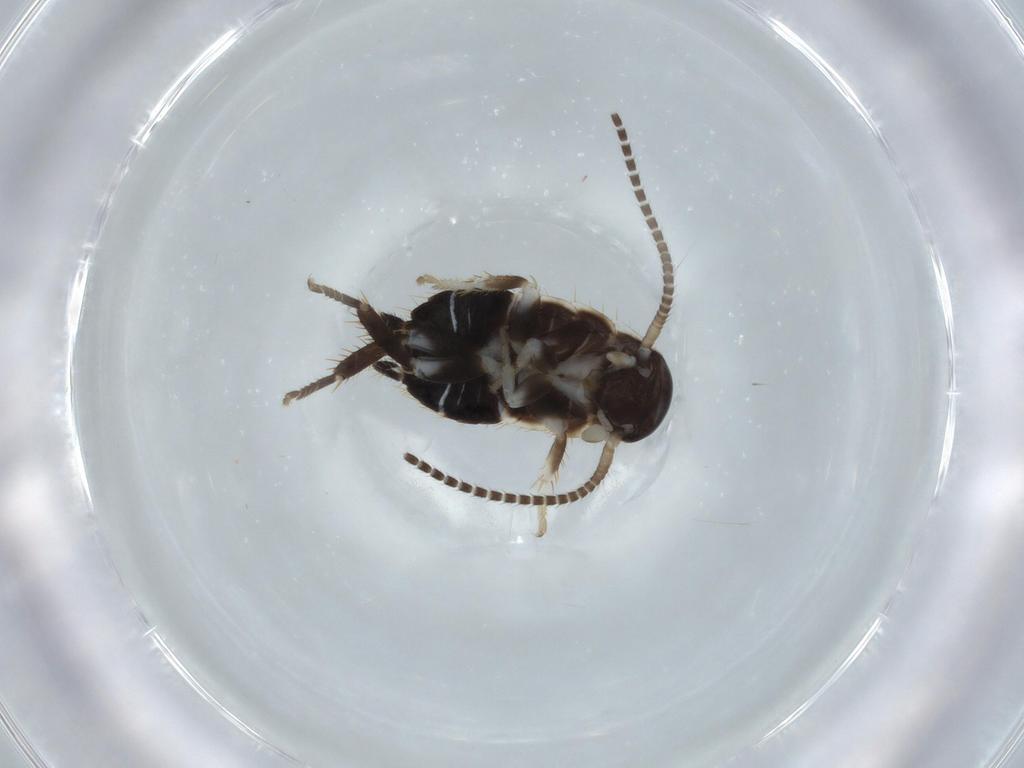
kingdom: Animalia
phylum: Arthropoda
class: Insecta
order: Blattodea
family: Ectobiidae
